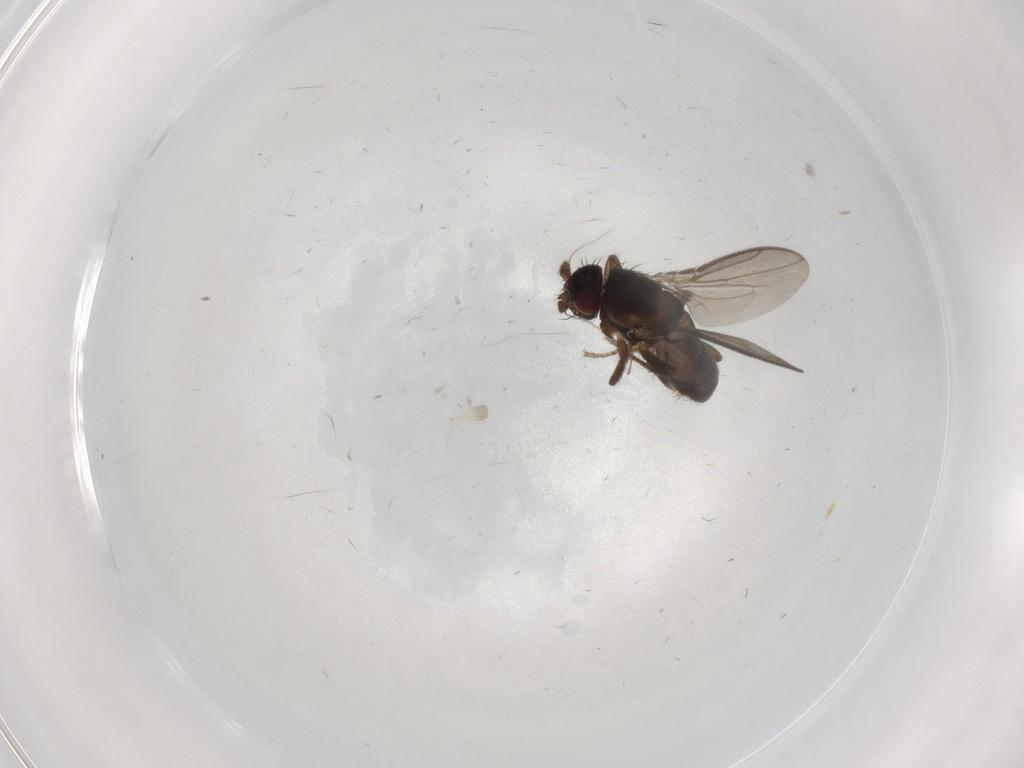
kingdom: Animalia
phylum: Arthropoda
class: Insecta
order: Diptera
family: Sphaeroceridae
